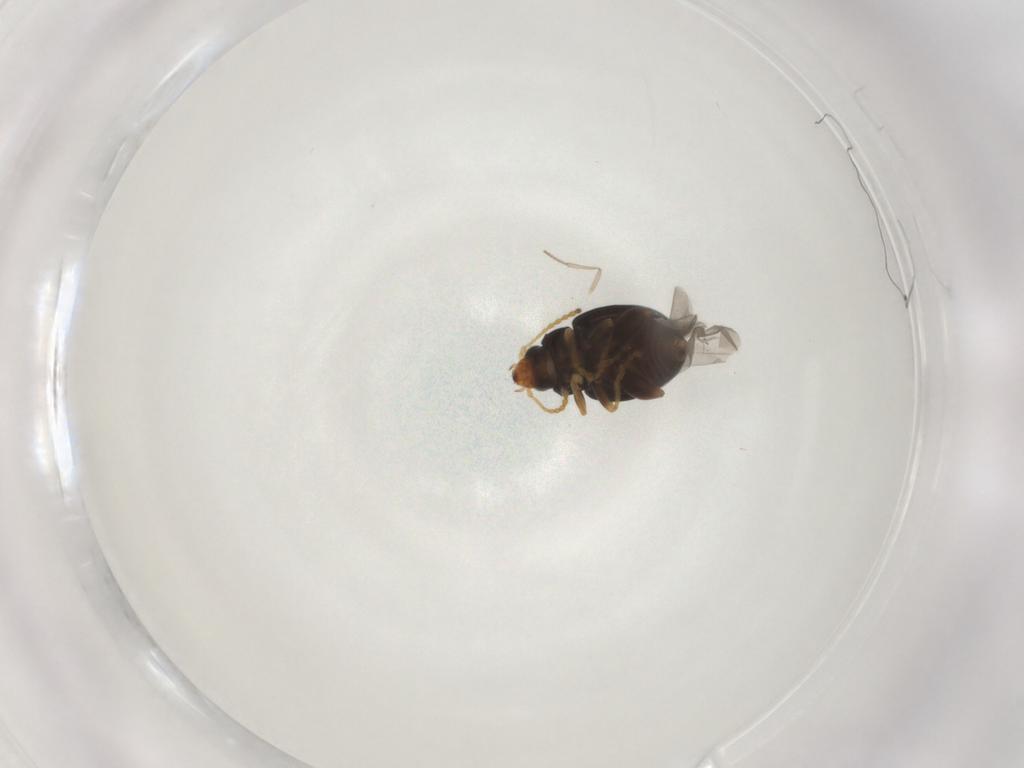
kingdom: Animalia
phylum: Arthropoda
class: Insecta
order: Coleoptera
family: Chrysomelidae
